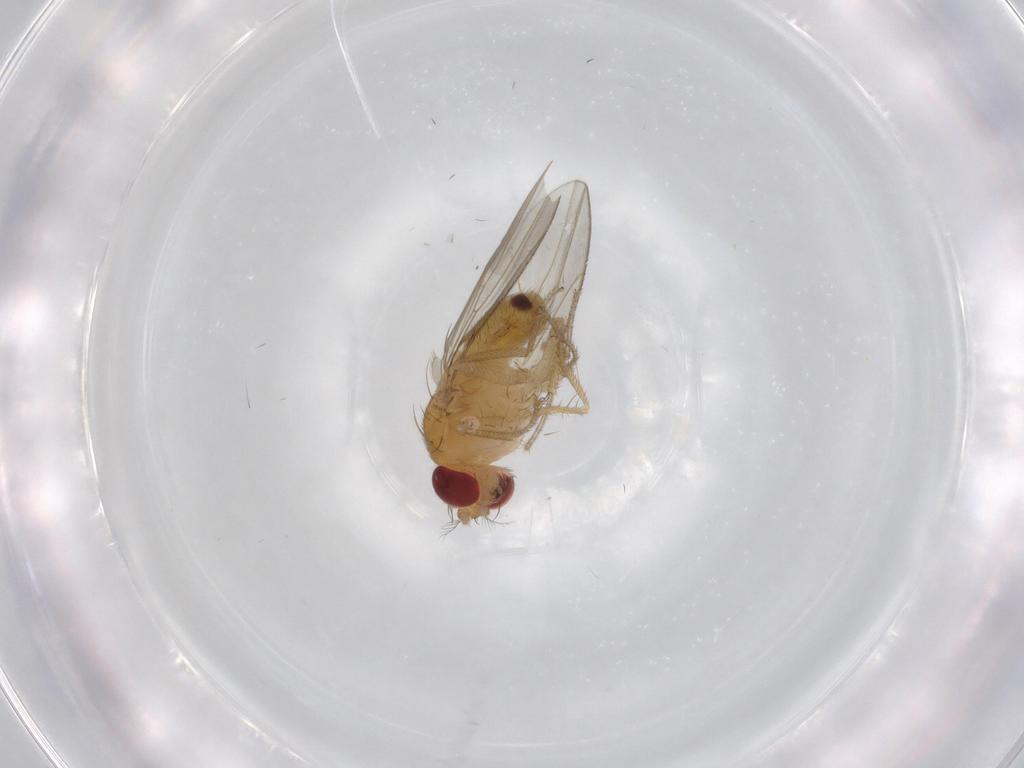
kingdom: Animalia
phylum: Arthropoda
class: Insecta
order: Diptera
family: Drosophilidae
